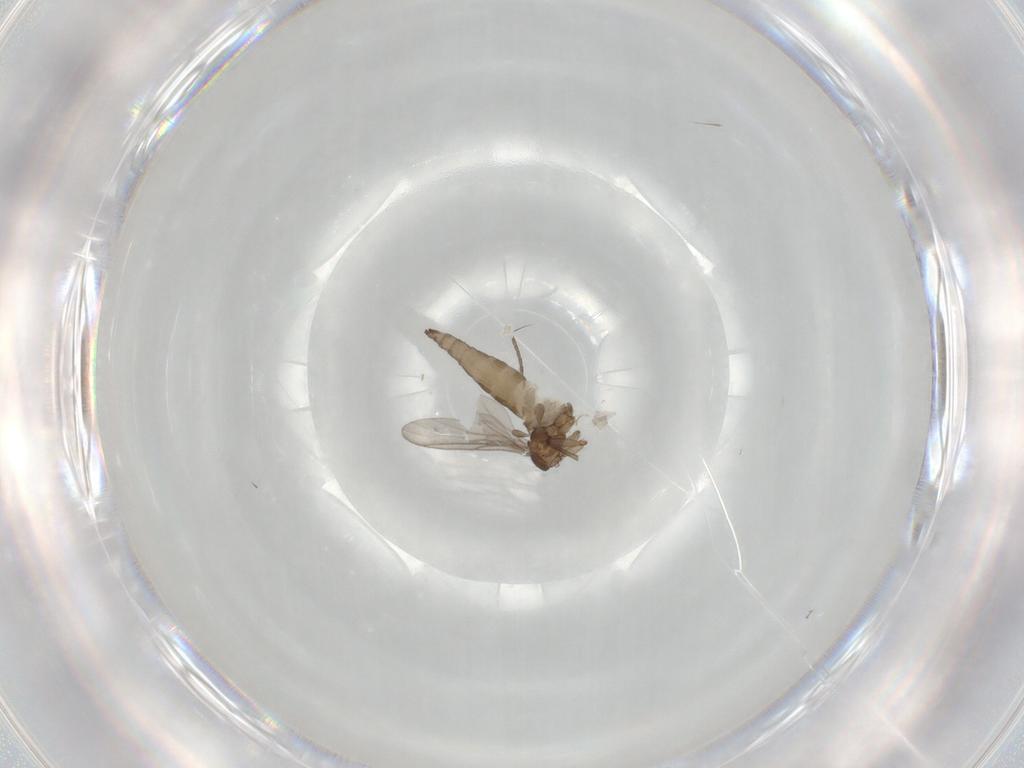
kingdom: Animalia
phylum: Arthropoda
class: Insecta
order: Diptera
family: Sciaridae
